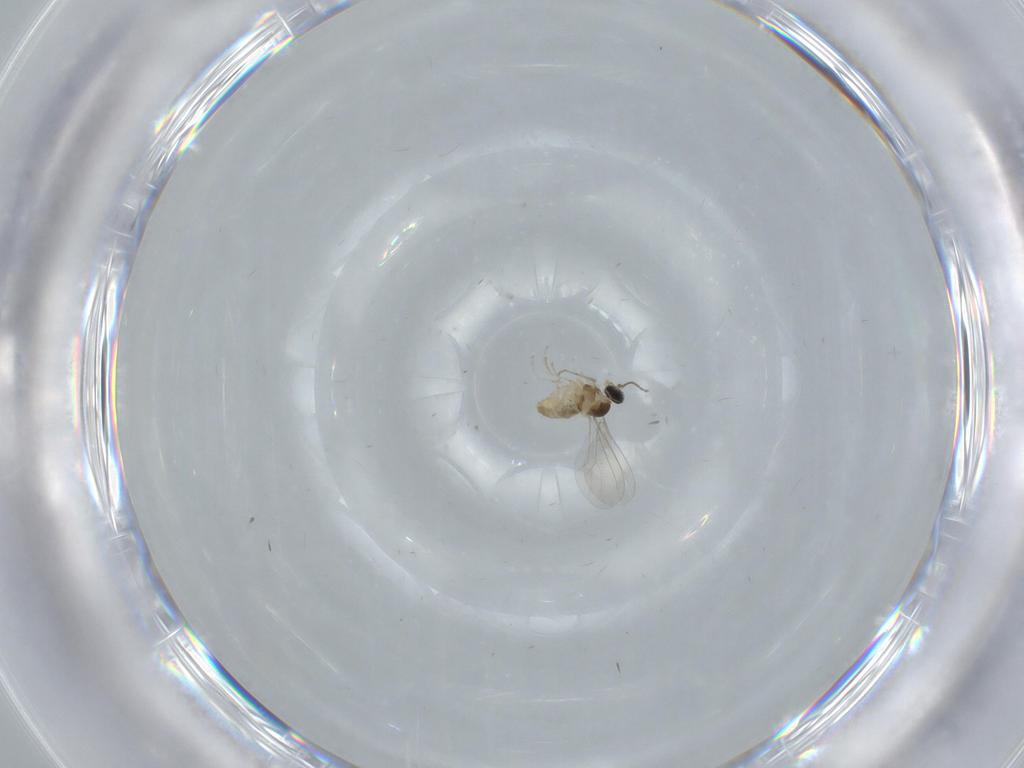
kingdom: Animalia
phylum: Arthropoda
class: Insecta
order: Diptera
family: Cecidomyiidae
